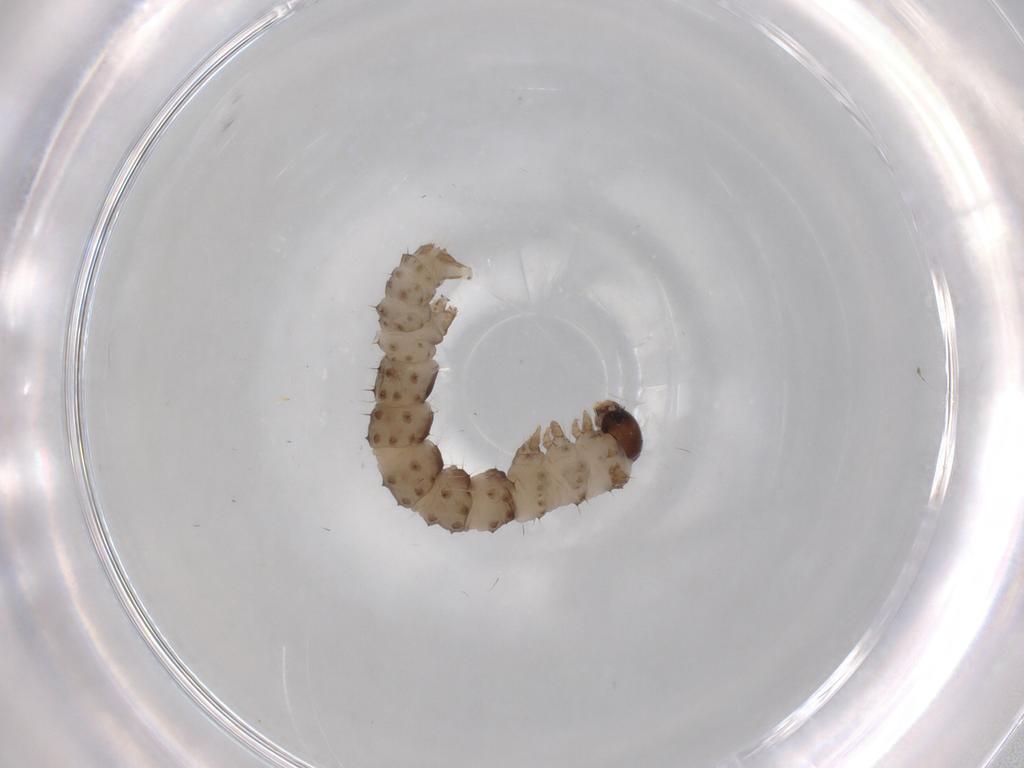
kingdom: Animalia
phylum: Arthropoda
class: Insecta
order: Lepidoptera
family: Geometridae
